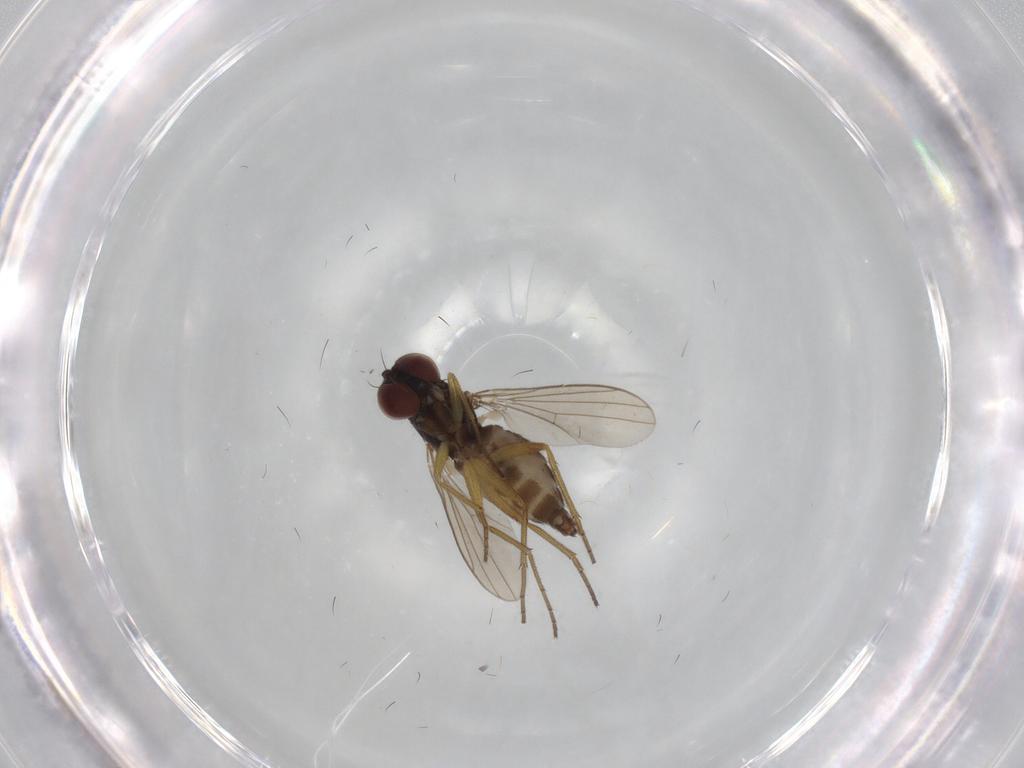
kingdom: Animalia
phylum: Arthropoda
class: Insecta
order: Diptera
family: Dolichopodidae
